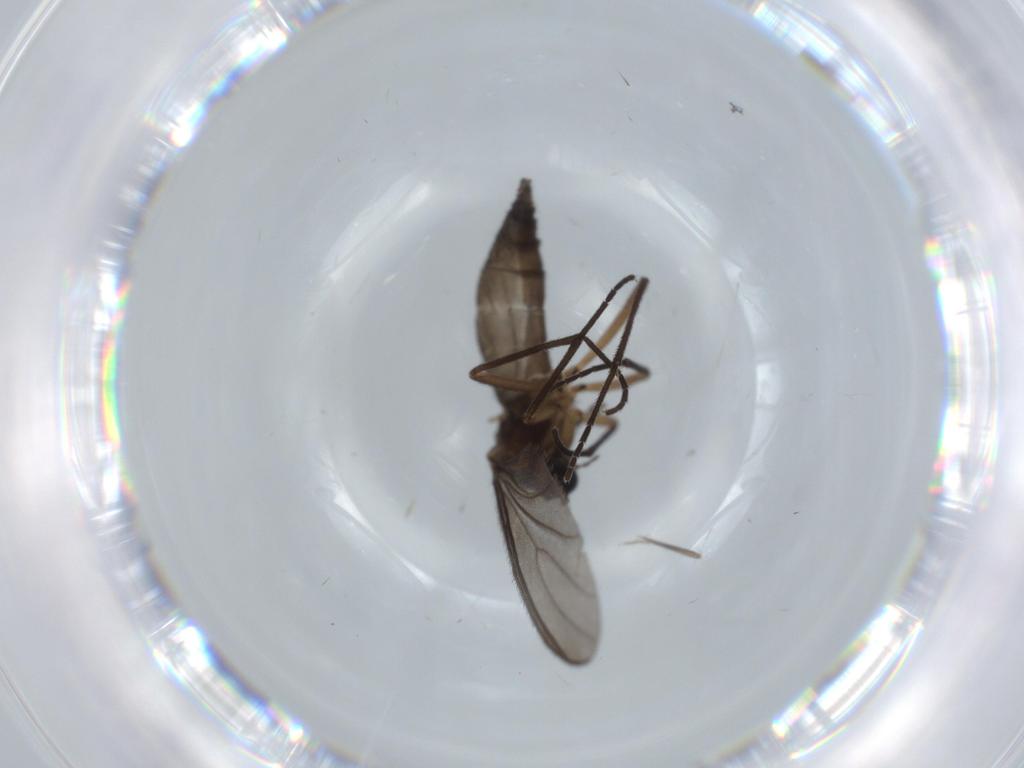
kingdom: Animalia
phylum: Arthropoda
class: Insecta
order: Diptera
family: Sciaridae
